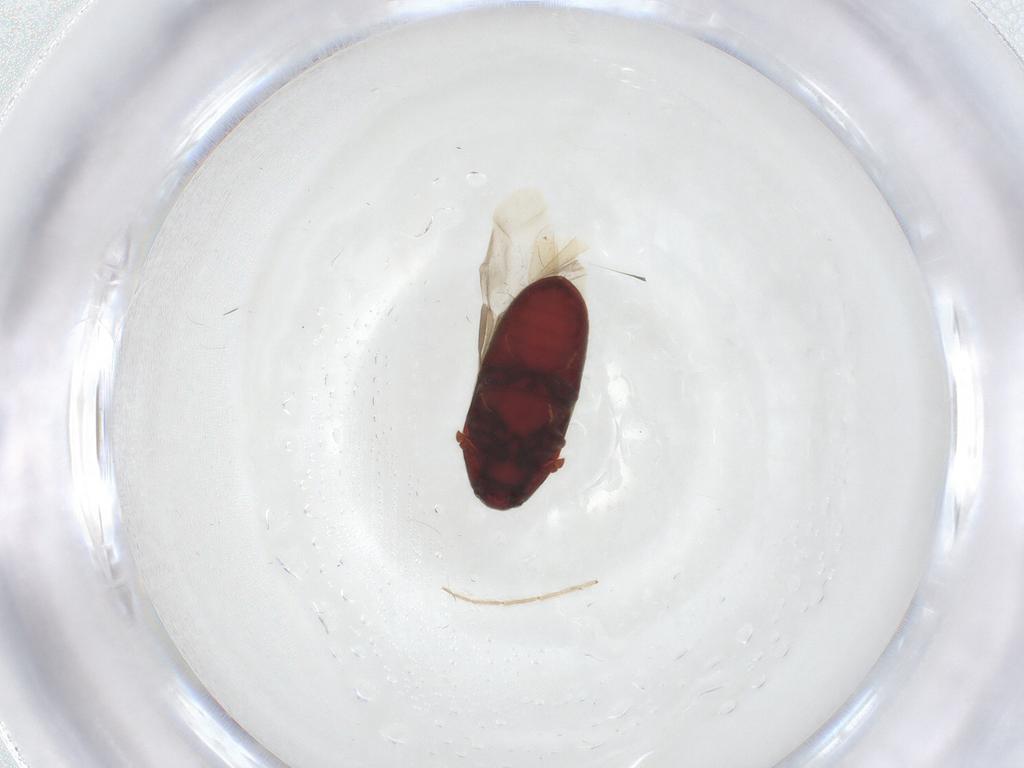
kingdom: Animalia
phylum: Arthropoda
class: Insecta
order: Coleoptera
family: Throscidae
